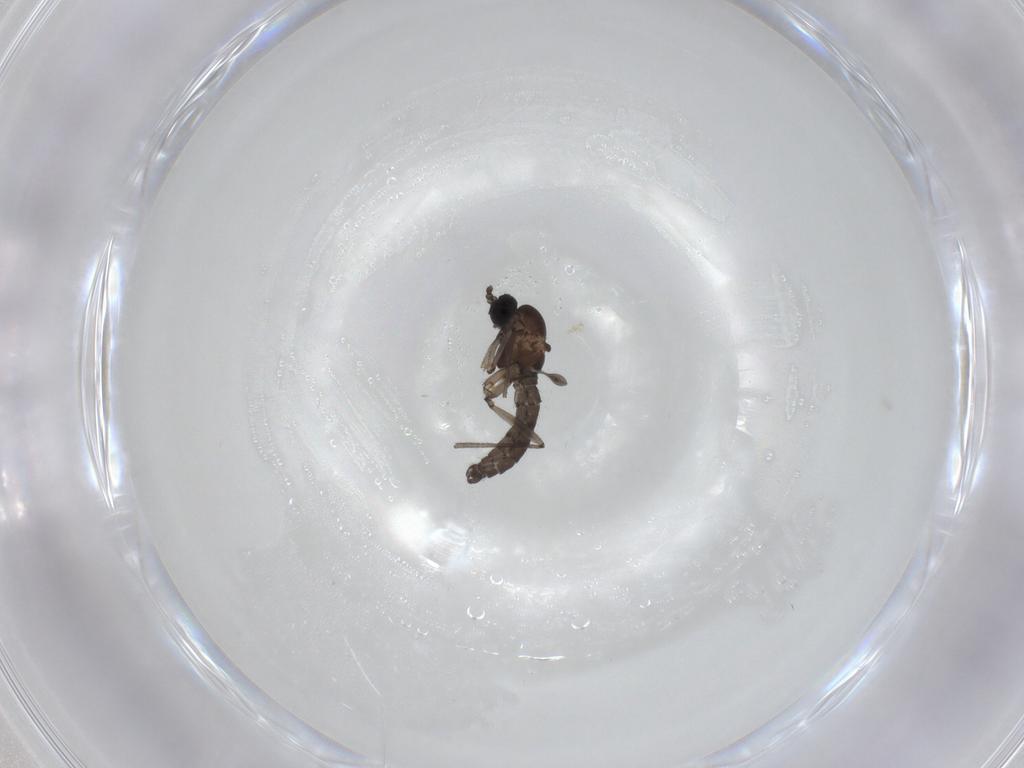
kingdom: Animalia
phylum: Arthropoda
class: Insecta
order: Diptera
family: Sciaridae
